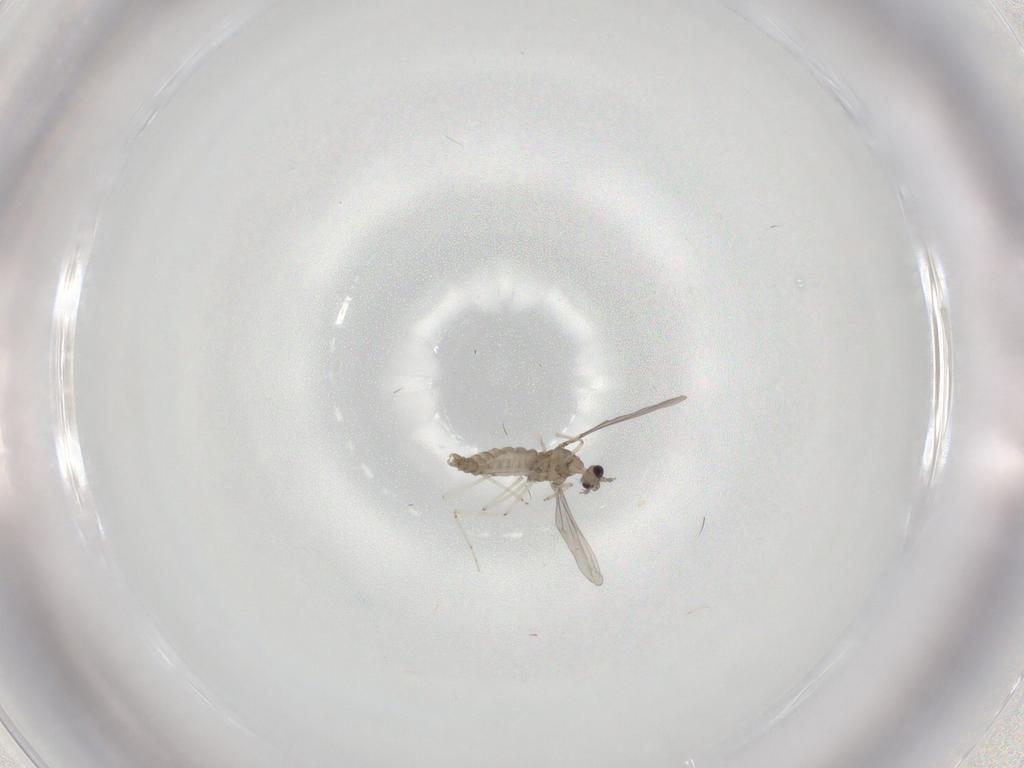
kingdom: Animalia
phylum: Arthropoda
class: Insecta
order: Diptera
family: Cecidomyiidae
